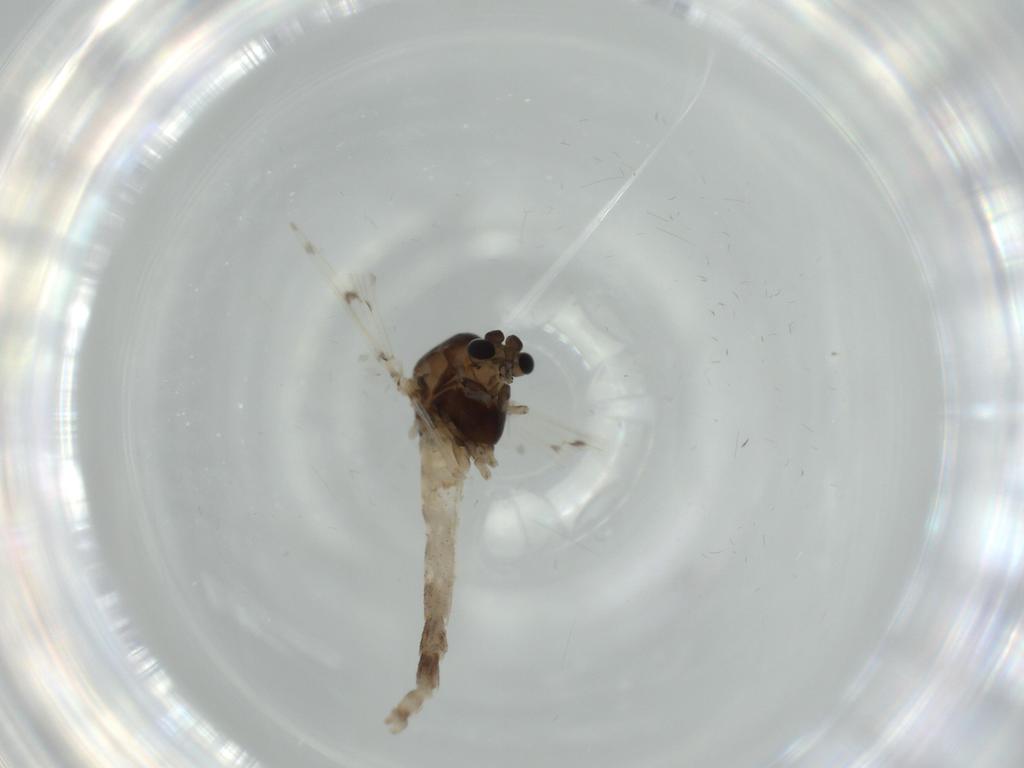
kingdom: Animalia
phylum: Arthropoda
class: Insecta
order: Diptera
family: Chironomidae
